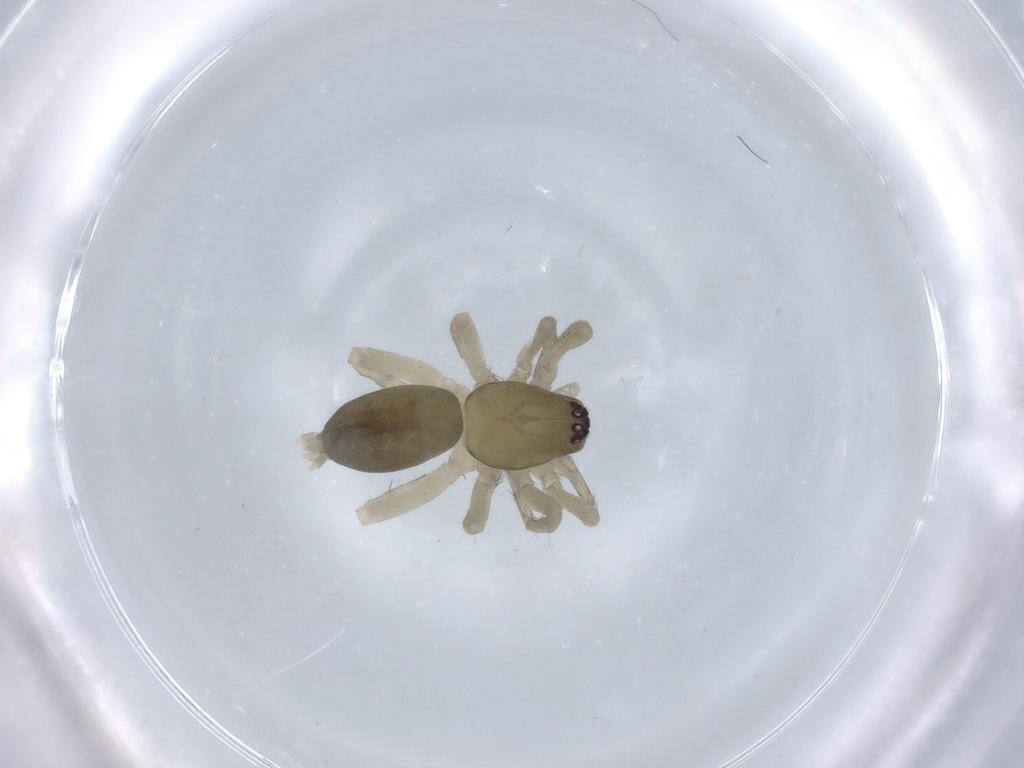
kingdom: Animalia
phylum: Arthropoda
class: Arachnida
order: Araneae
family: Anyphaenidae
